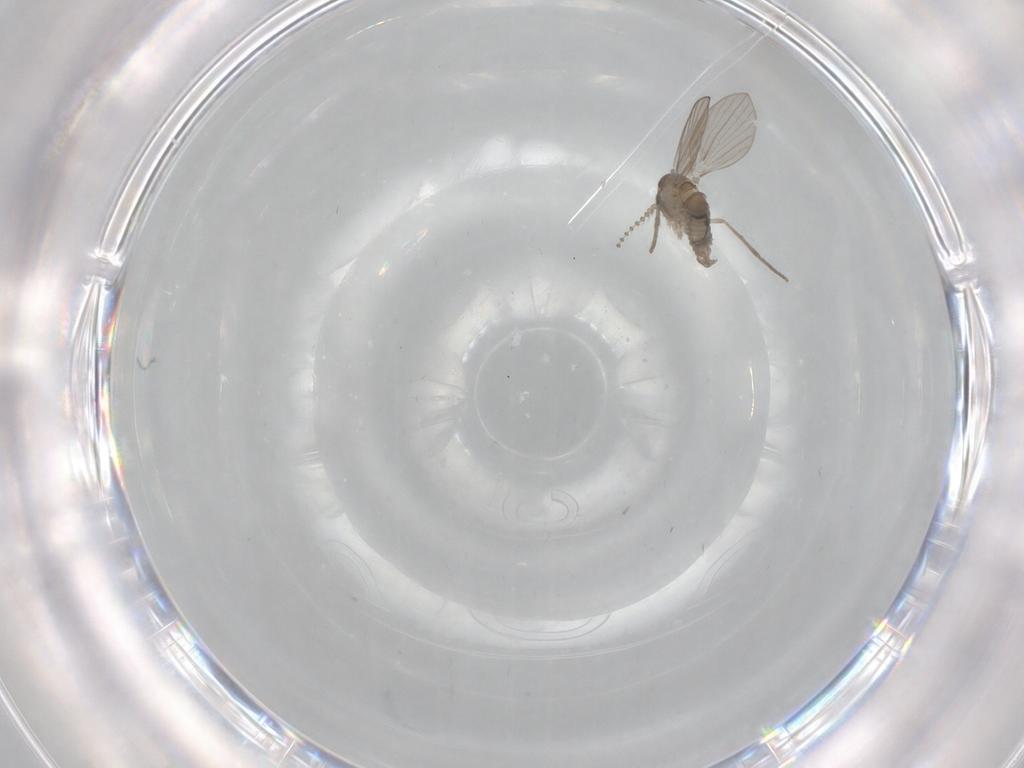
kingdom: Animalia
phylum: Arthropoda
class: Insecta
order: Diptera
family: Psychodidae
